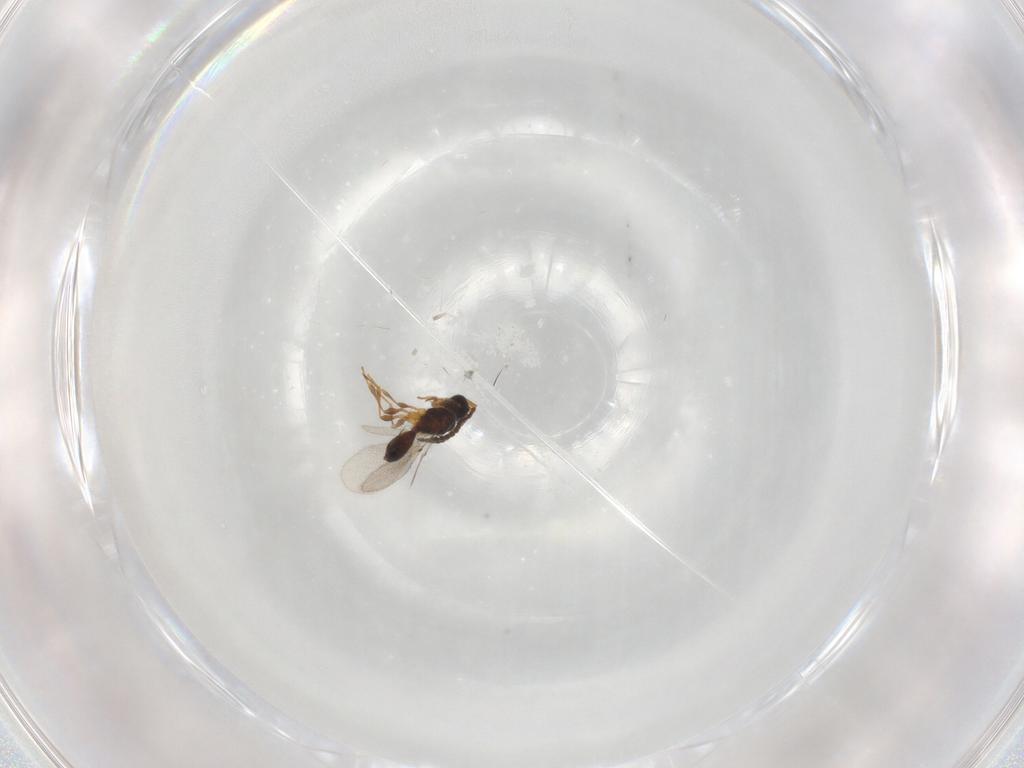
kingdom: Animalia
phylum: Arthropoda
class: Insecta
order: Hymenoptera
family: Diapriidae
